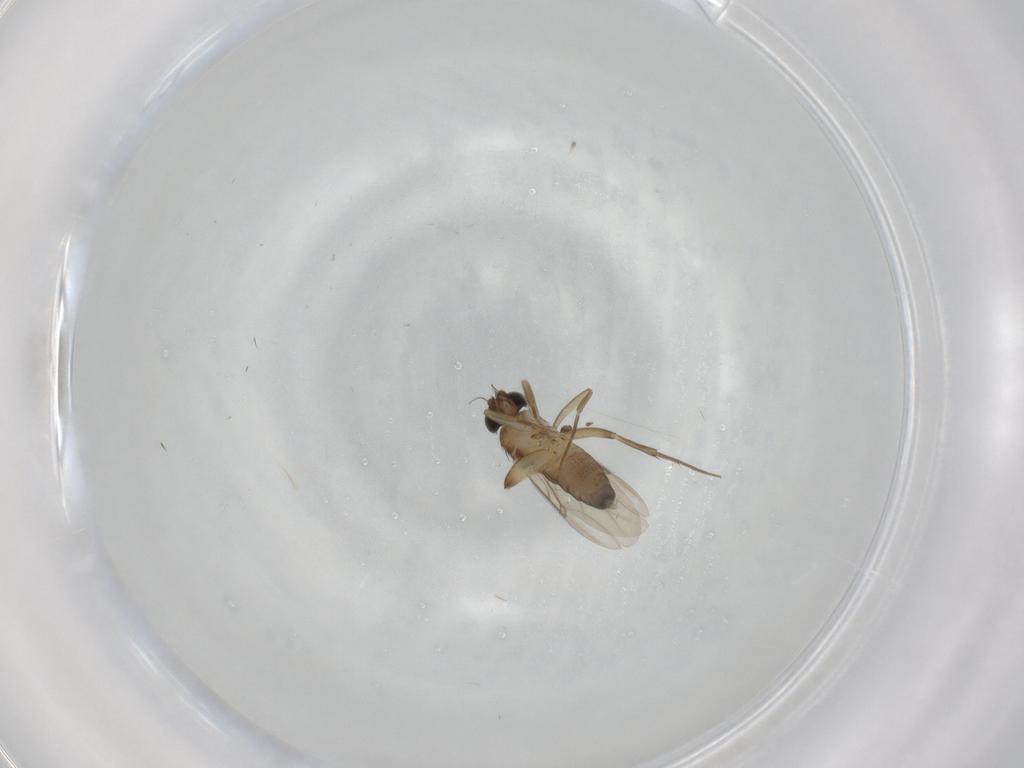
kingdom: Animalia
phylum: Arthropoda
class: Insecta
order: Diptera
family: Phoridae
